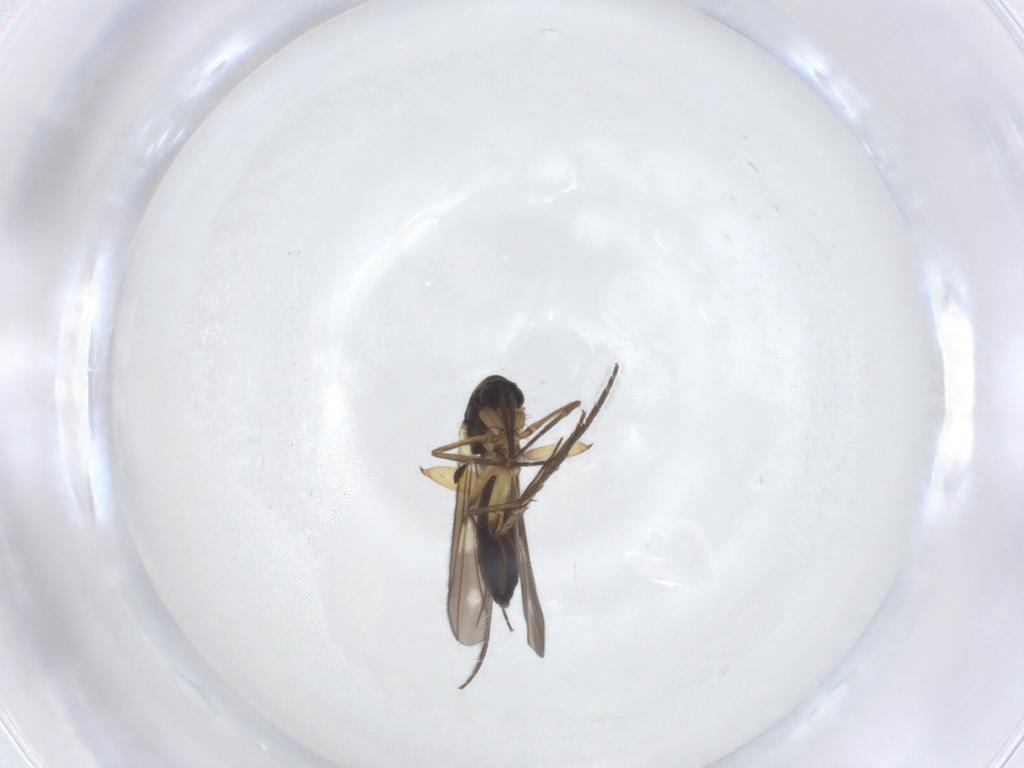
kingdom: Animalia
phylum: Arthropoda
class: Insecta
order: Diptera
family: Mycetophilidae
